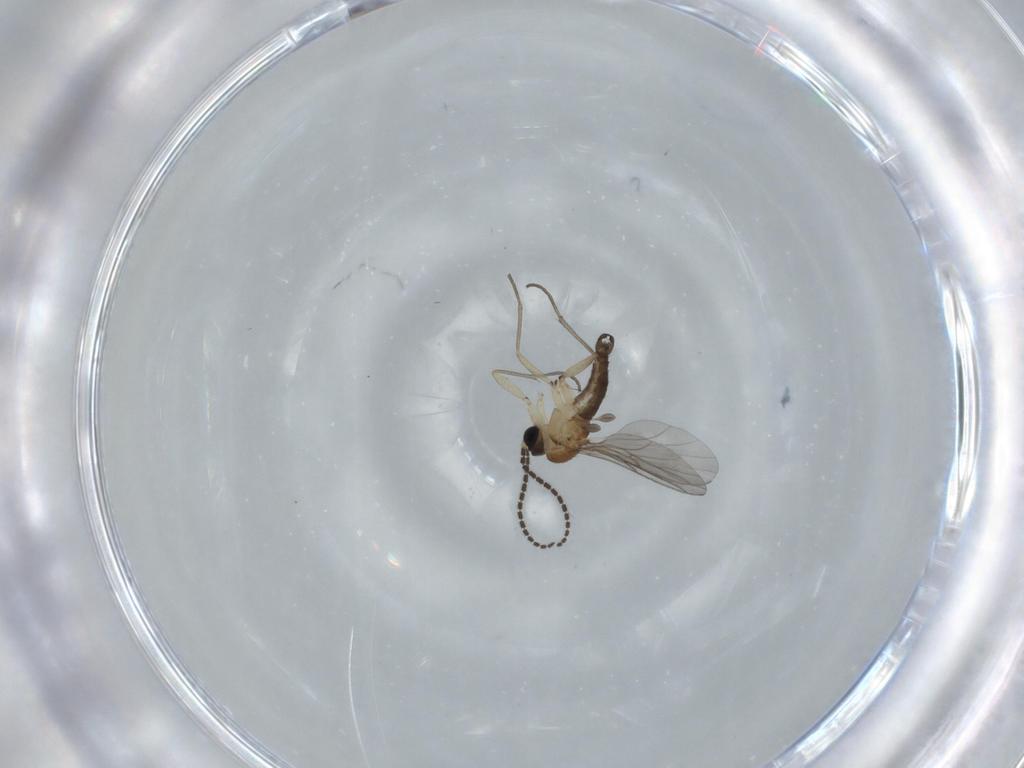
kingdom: Animalia
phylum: Arthropoda
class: Insecta
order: Diptera
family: Sciaridae
